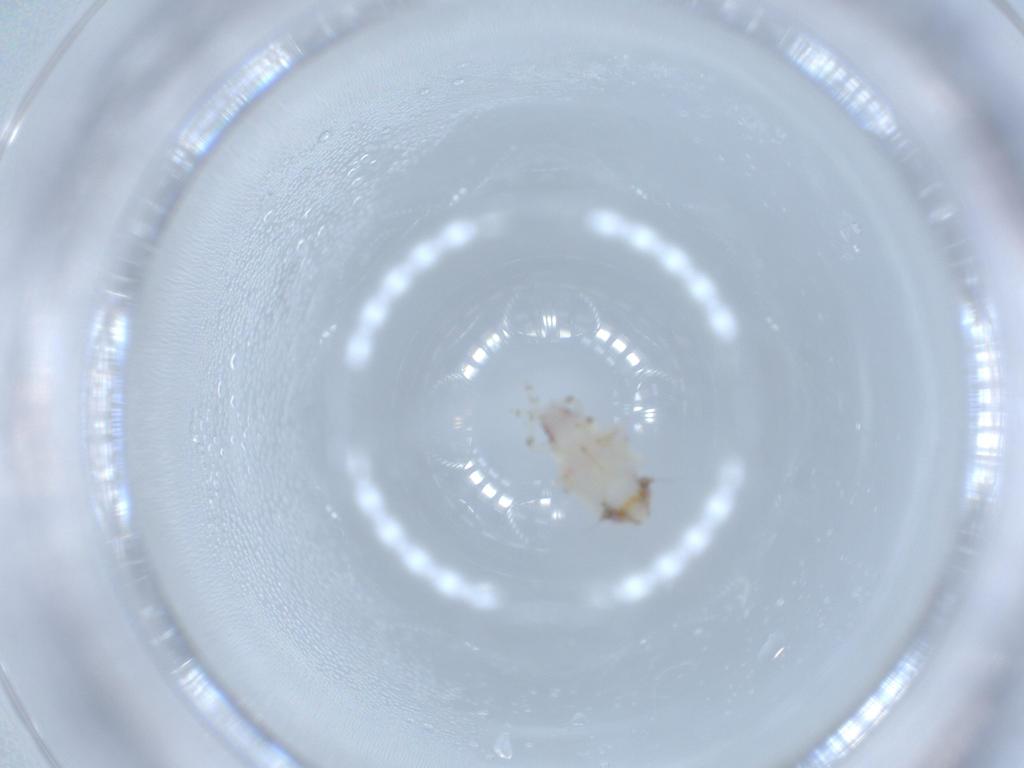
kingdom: Animalia
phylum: Arthropoda
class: Insecta
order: Hemiptera
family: Nogodinidae
